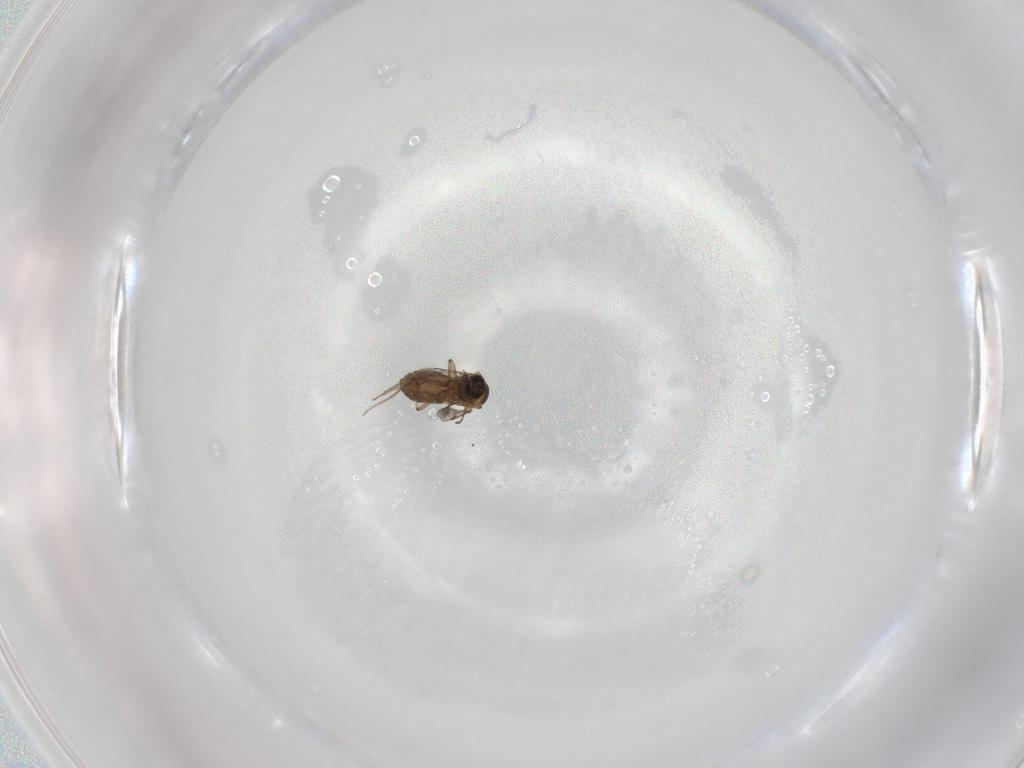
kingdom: Animalia
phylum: Arthropoda
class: Insecta
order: Diptera
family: Ceratopogonidae
